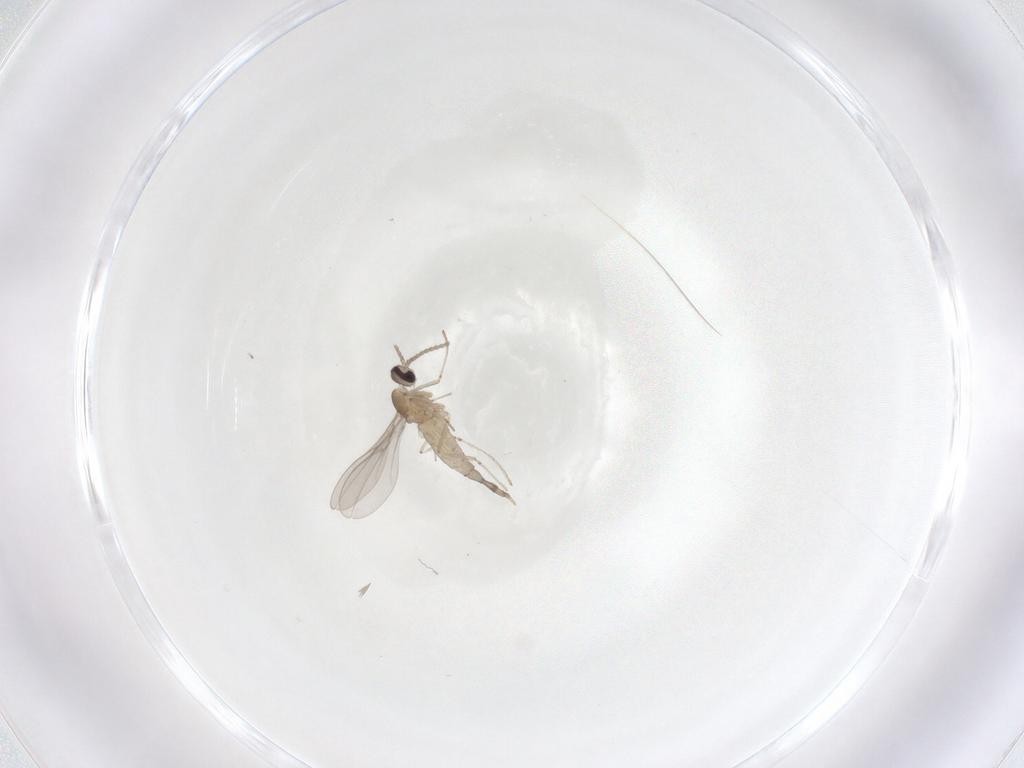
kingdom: Animalia
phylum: Arthropoda
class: Insecta
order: Diptera
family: Cecidomyiidae
